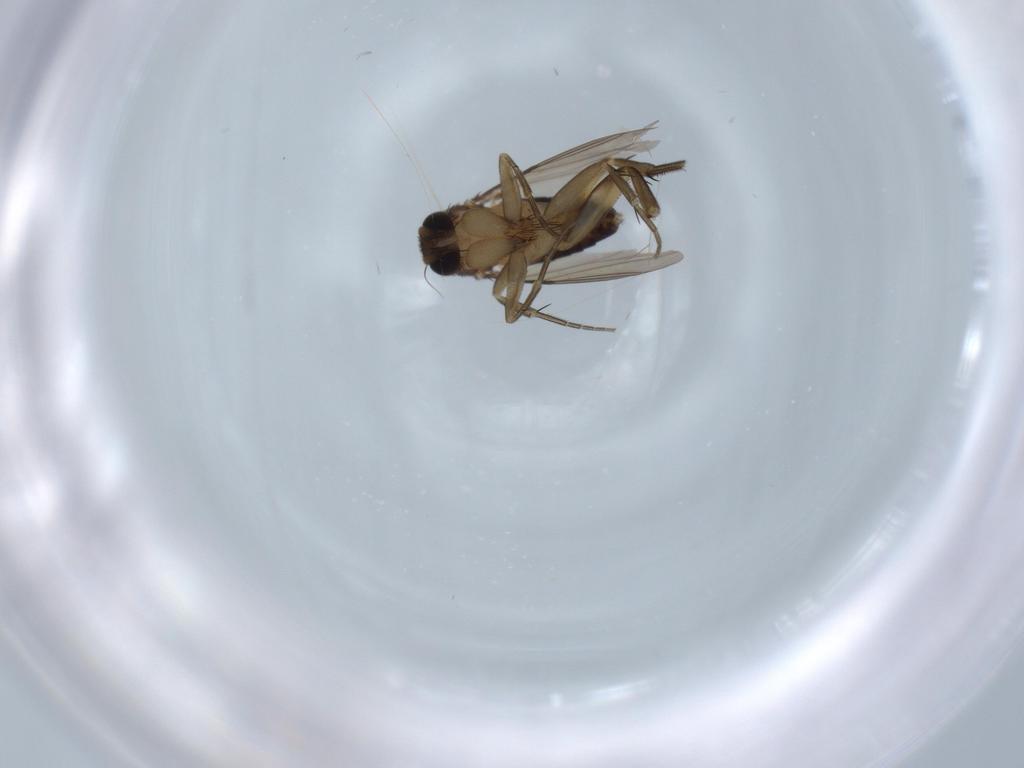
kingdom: Animalia
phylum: Arthropoda
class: Insecta
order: Diptera
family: Phoridae
